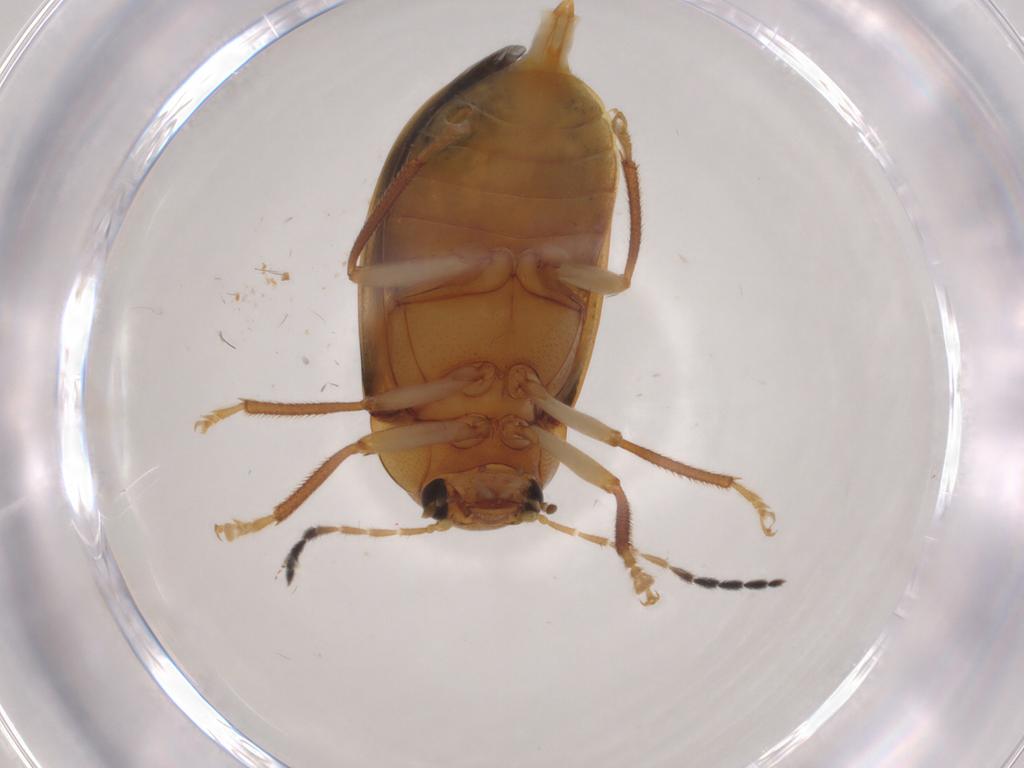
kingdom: Animalia
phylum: Arthropoda
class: Insecta
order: Coleoptera
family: Ptilodactylidae
